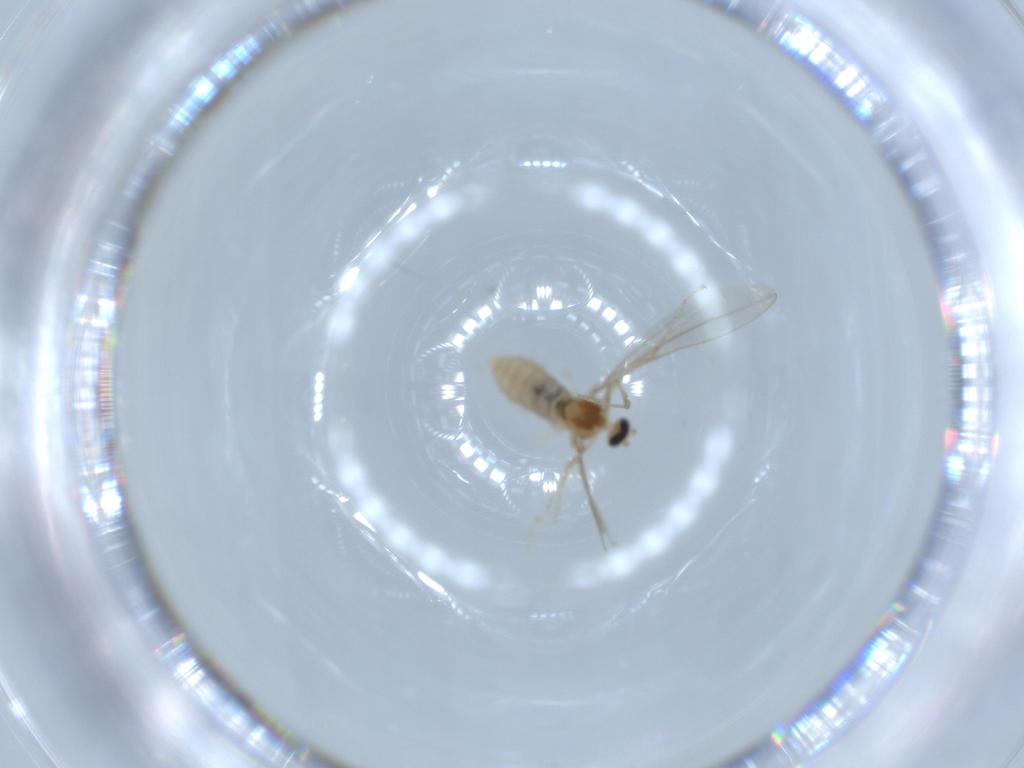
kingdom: Animalia
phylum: Arthropoda
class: Insecta
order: Diptera
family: Cecidomyiidae
